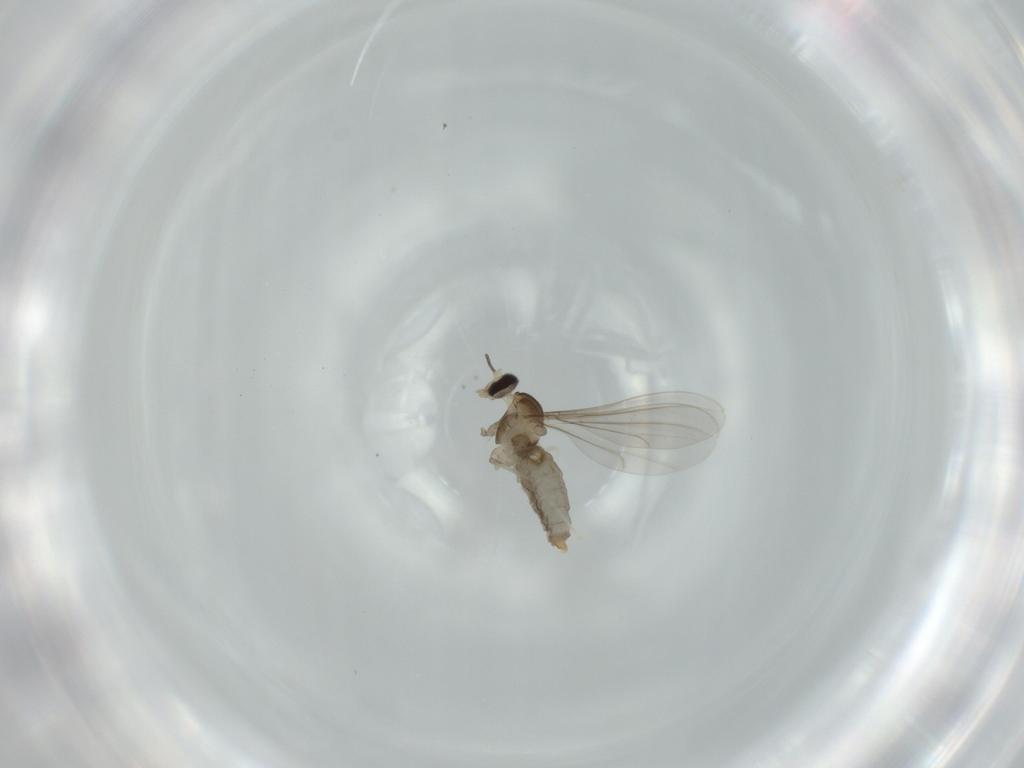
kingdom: Animalia
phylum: Arthropoda
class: Insecta
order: Diptera
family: Cecidomyiidae
